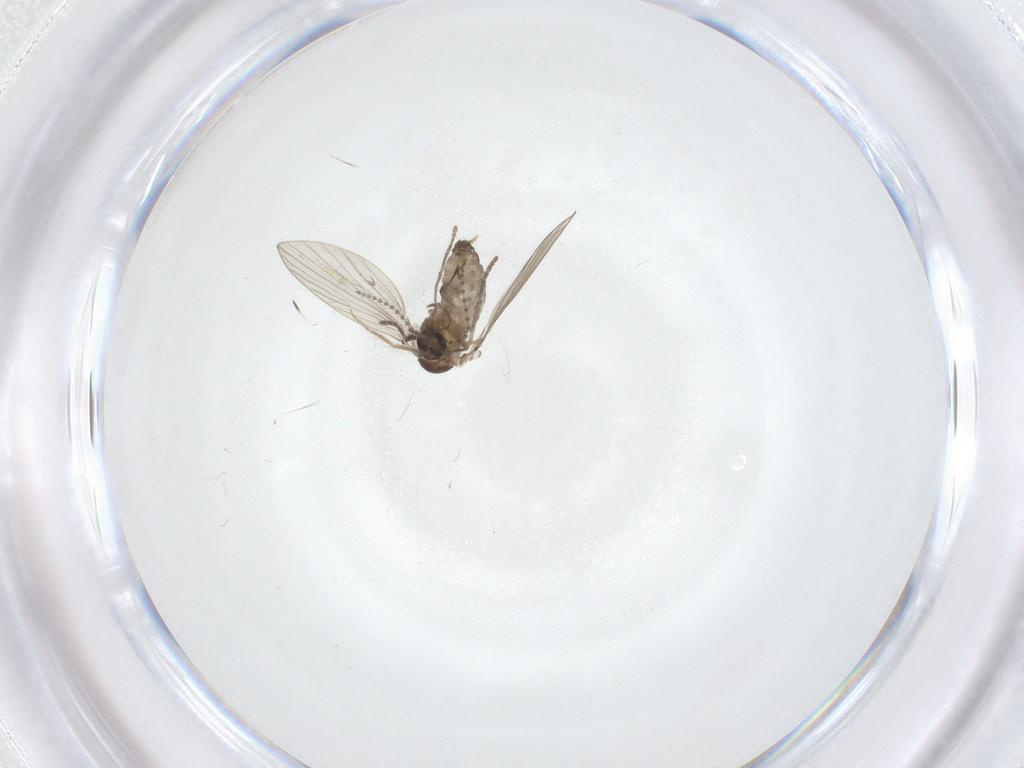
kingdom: Animalia
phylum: Arthropoda
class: Insecta
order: Diptera
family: Chironomidae
